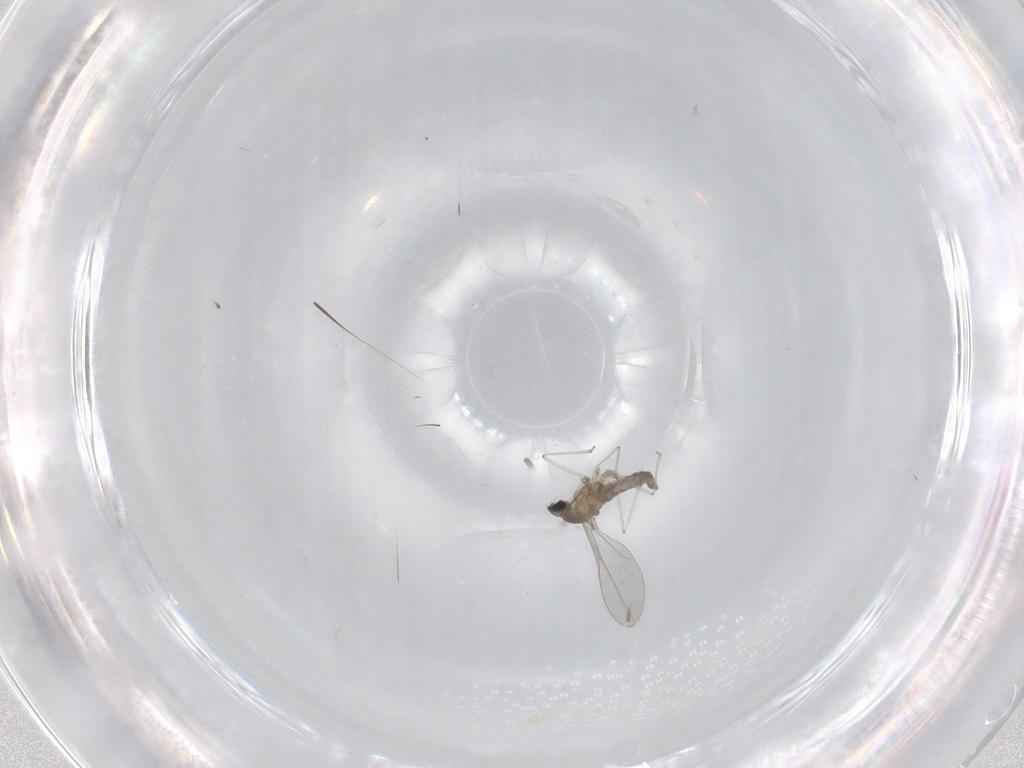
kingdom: Animalia
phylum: Arthropoda
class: Insecta
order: Diptera
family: Cecidomyiidae
